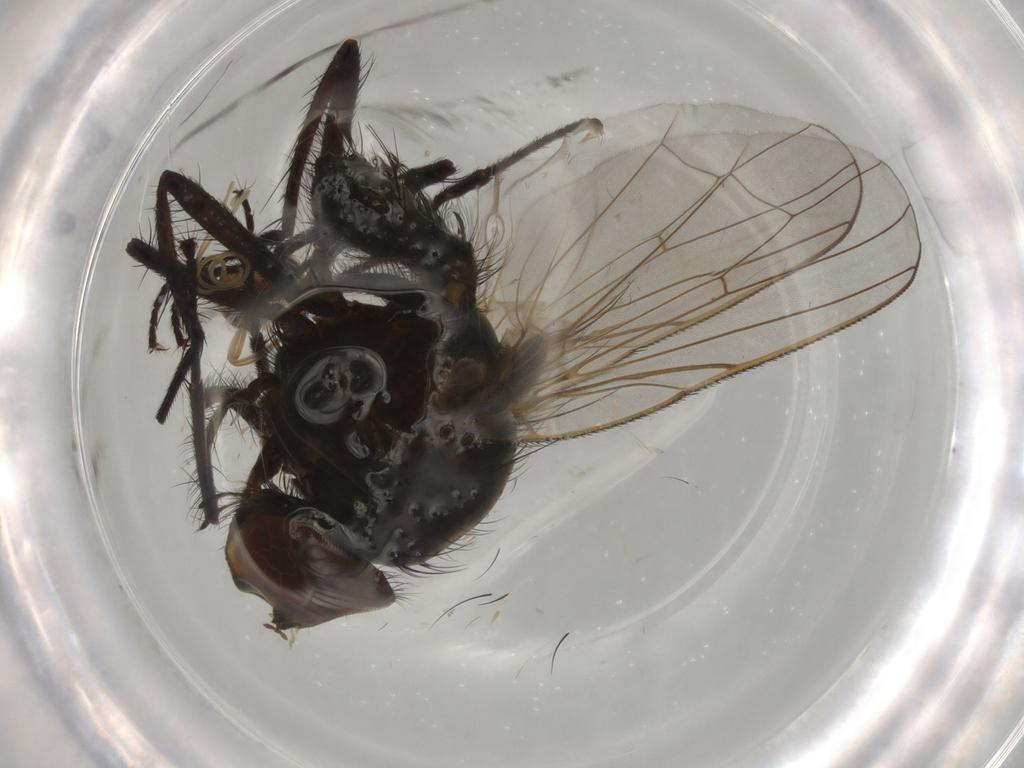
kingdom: Animalia
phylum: Arthropoda
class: Insecta
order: Diptera
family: Scatopsidae
